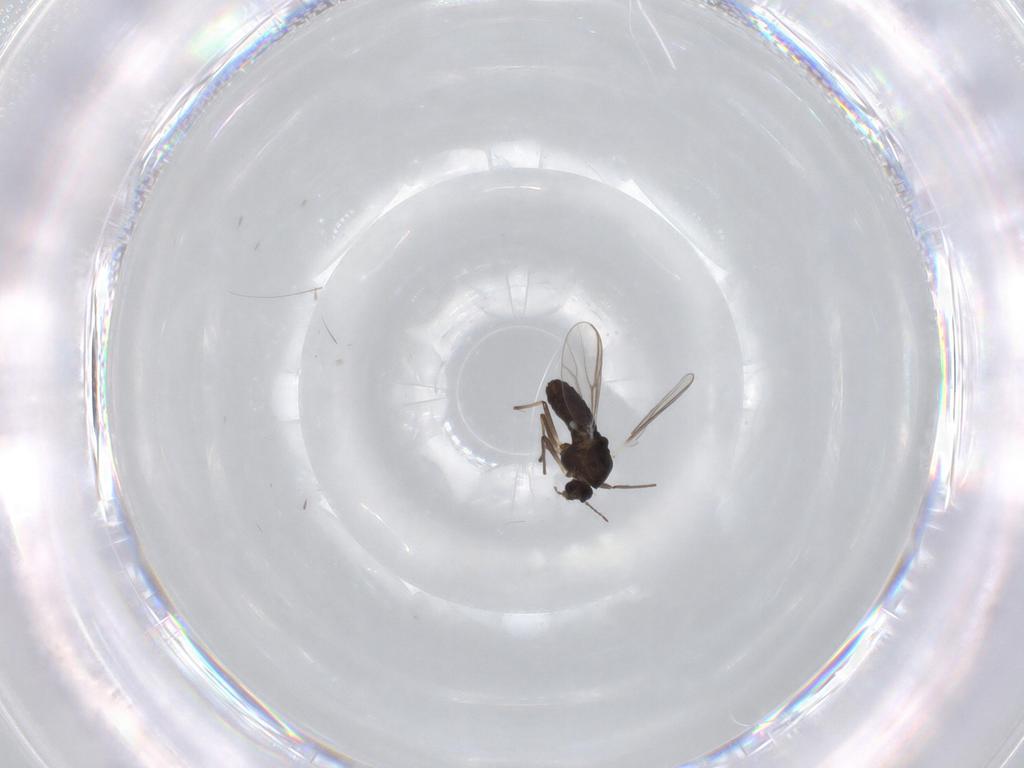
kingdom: Animalia
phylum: Arthropoda
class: Insecta
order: Diptera
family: Chironomidae
